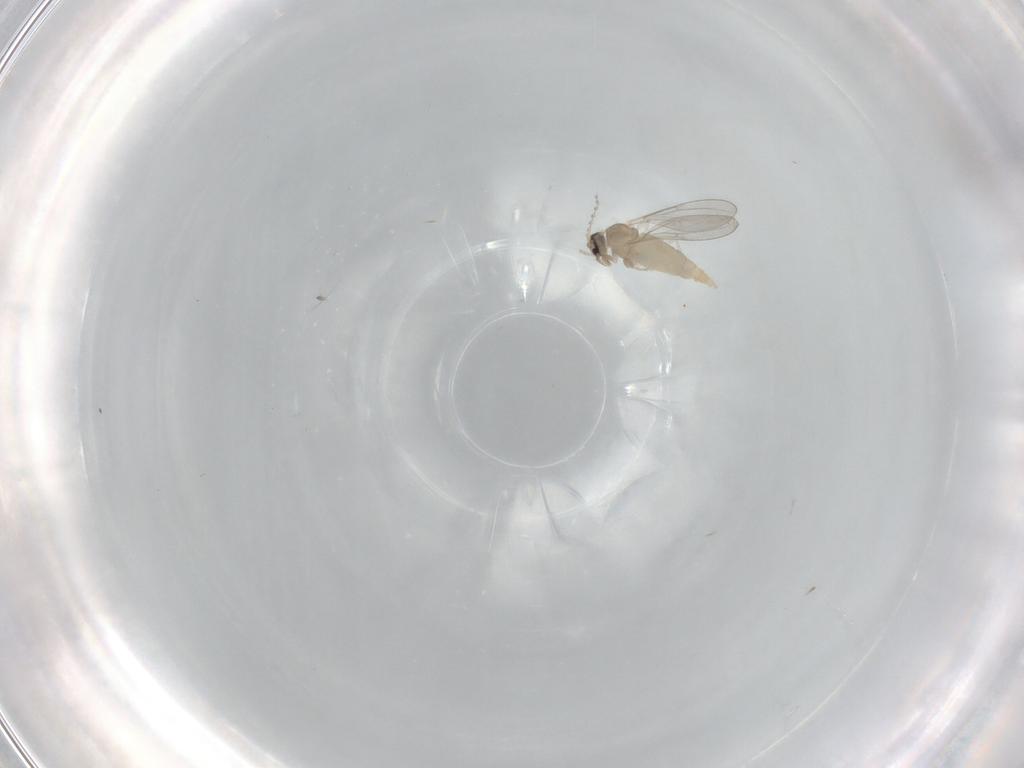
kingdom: Animalia
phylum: Arthropoda
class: Insecta
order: Diptera
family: Cecidomyiidae
